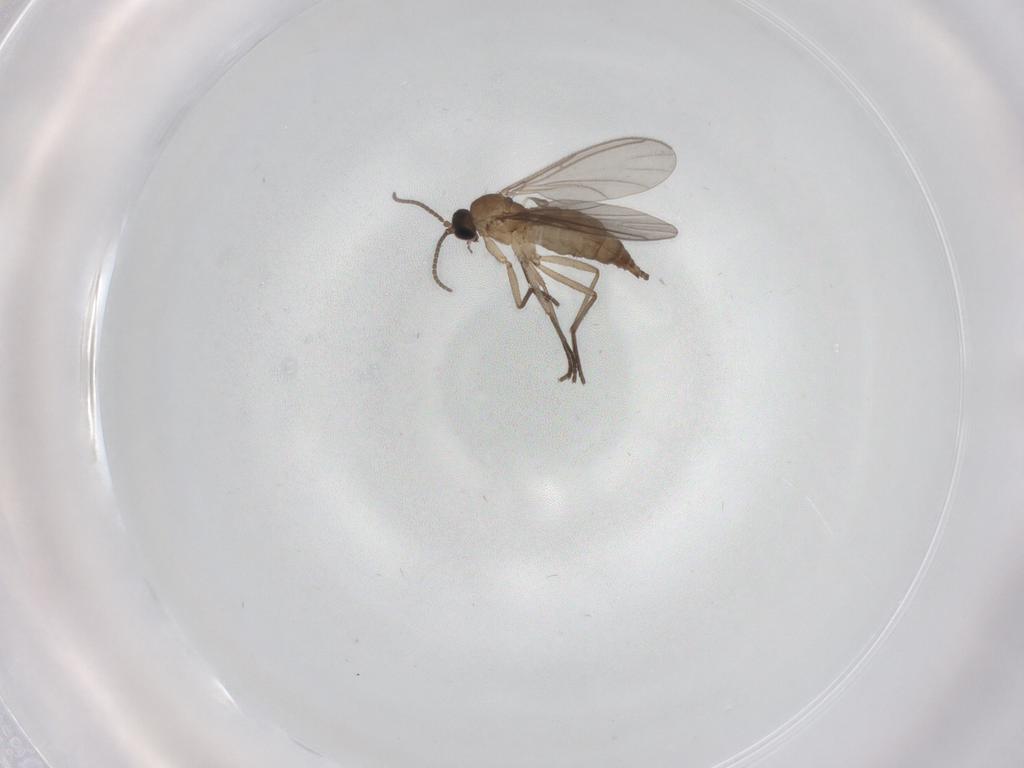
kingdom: Animalia
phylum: Arthropoda
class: Insecta
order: Diptera
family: Sciaridae
